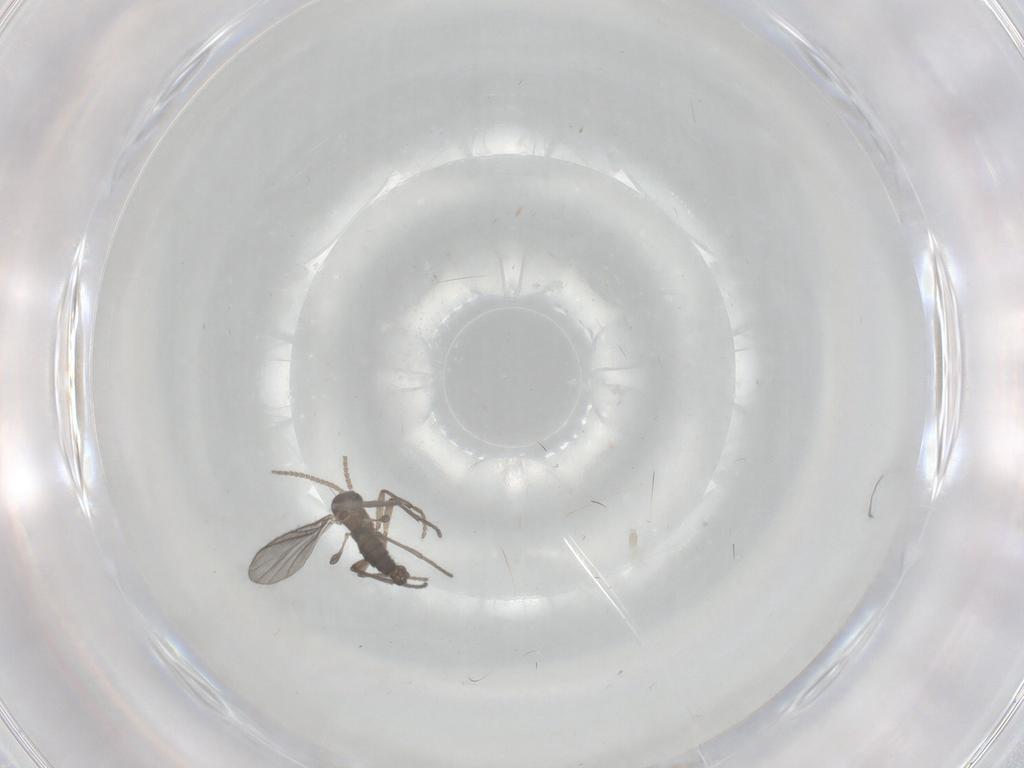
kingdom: Animalia
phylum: Arthropoda
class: Insecta
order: Diptera
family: Sciaridae
